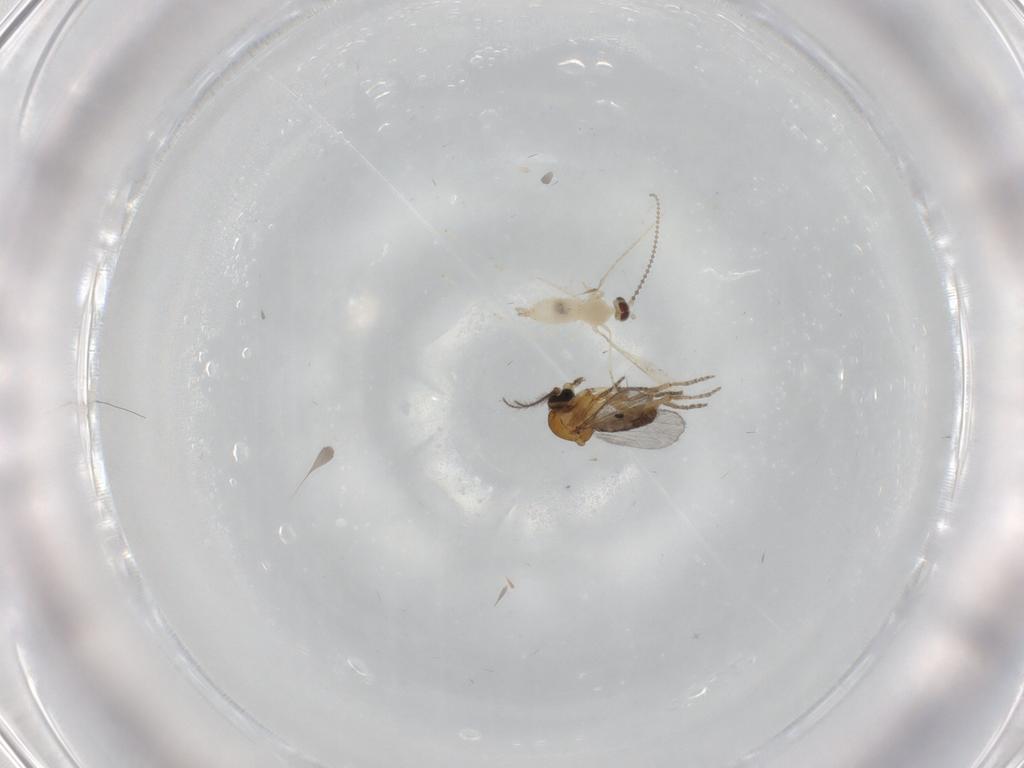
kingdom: Animalia
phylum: Arthropoda
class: Insecta
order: Diptera
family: Cecidomyiidae
